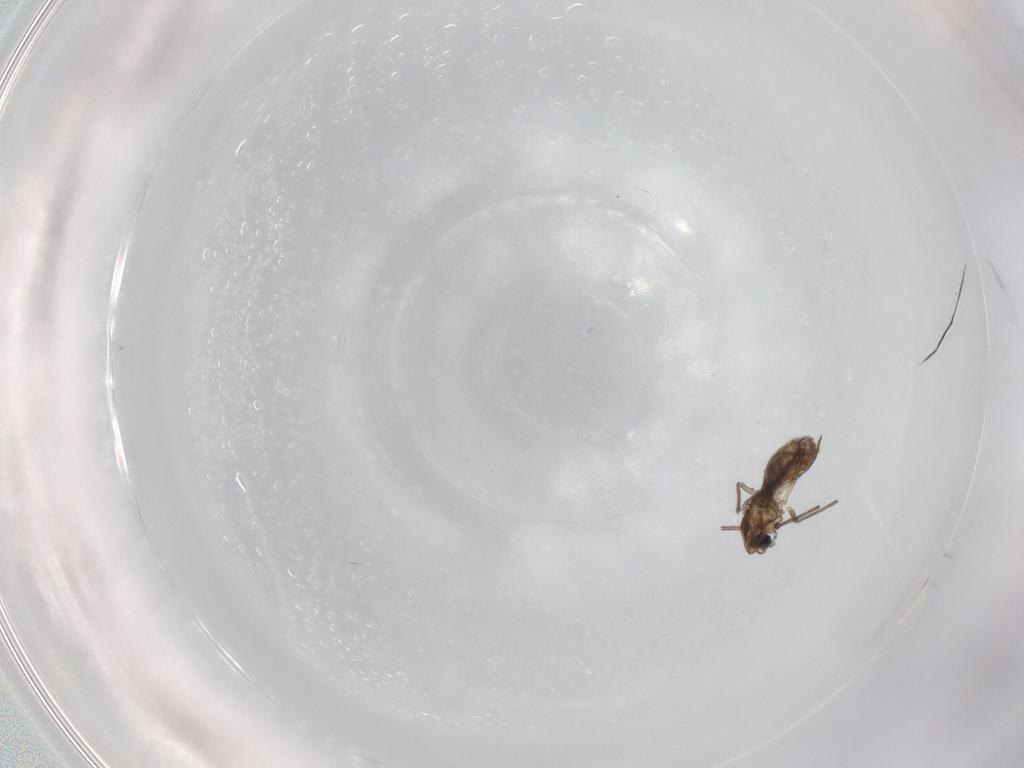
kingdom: Animalia
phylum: Arthropoda
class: Insecta
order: Diptera
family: Chironomidae
